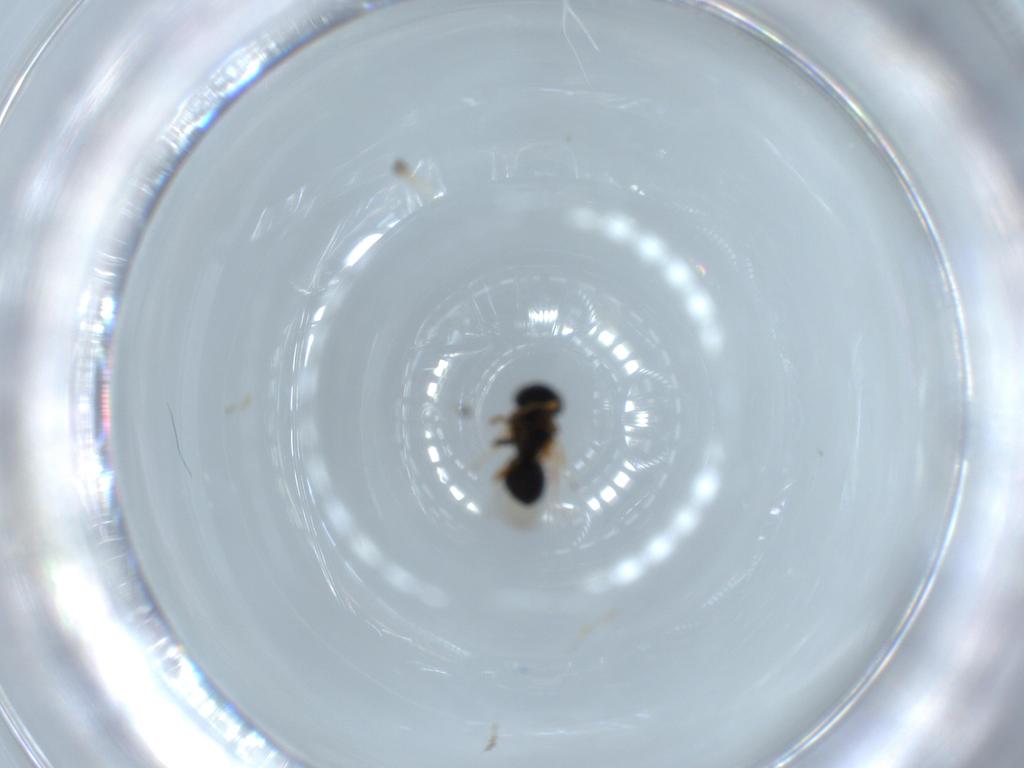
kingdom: Animalia
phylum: Arthropoda
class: Insecta
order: Hymenoptera
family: Scelionidae
